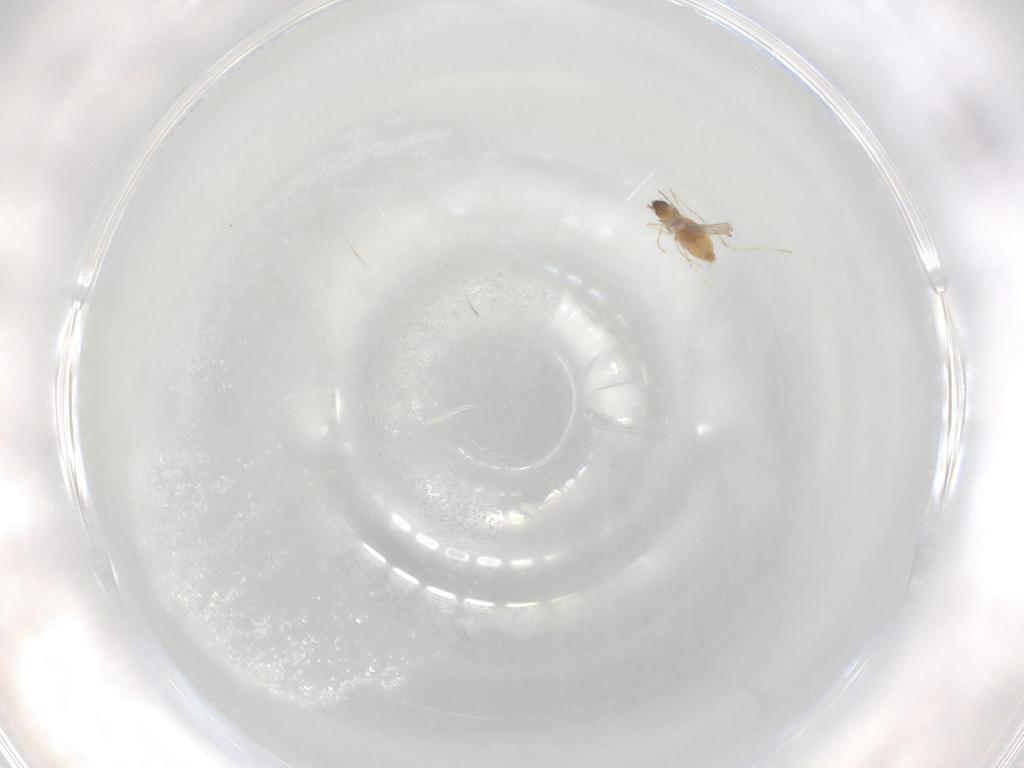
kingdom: Animalia
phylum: Arthropoda
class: Insecta
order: Diptera
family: Cecidomyiidae
